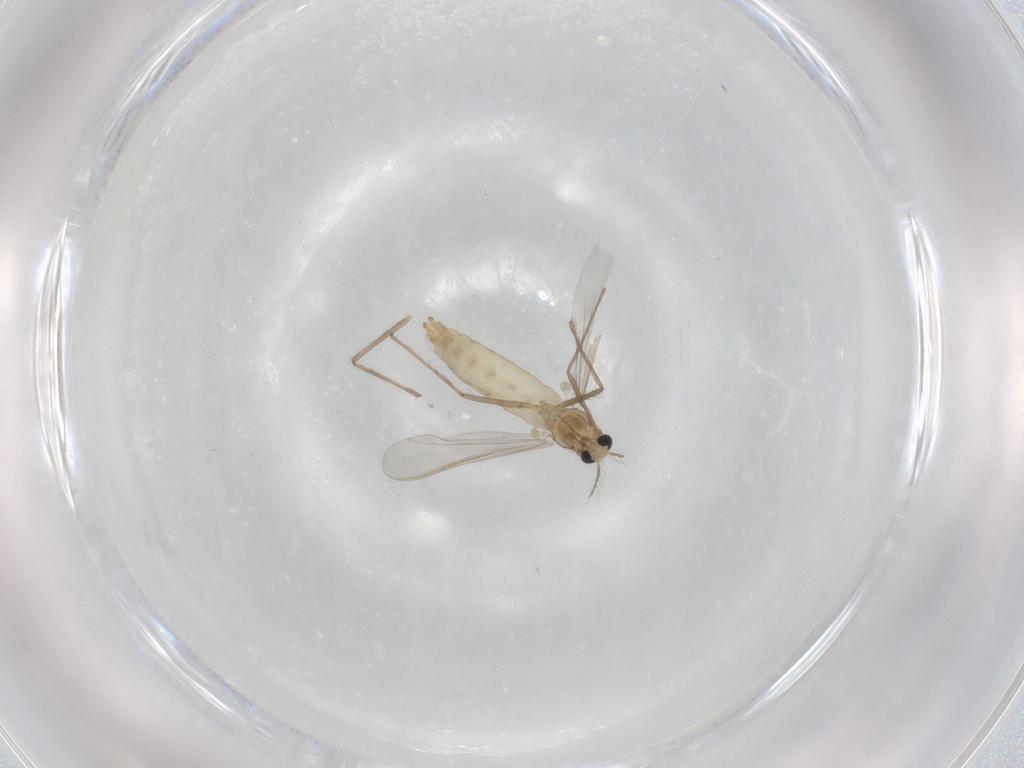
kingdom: Animalia
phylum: Arthropoda
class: Insecta
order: Diptera
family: Chironomidae
